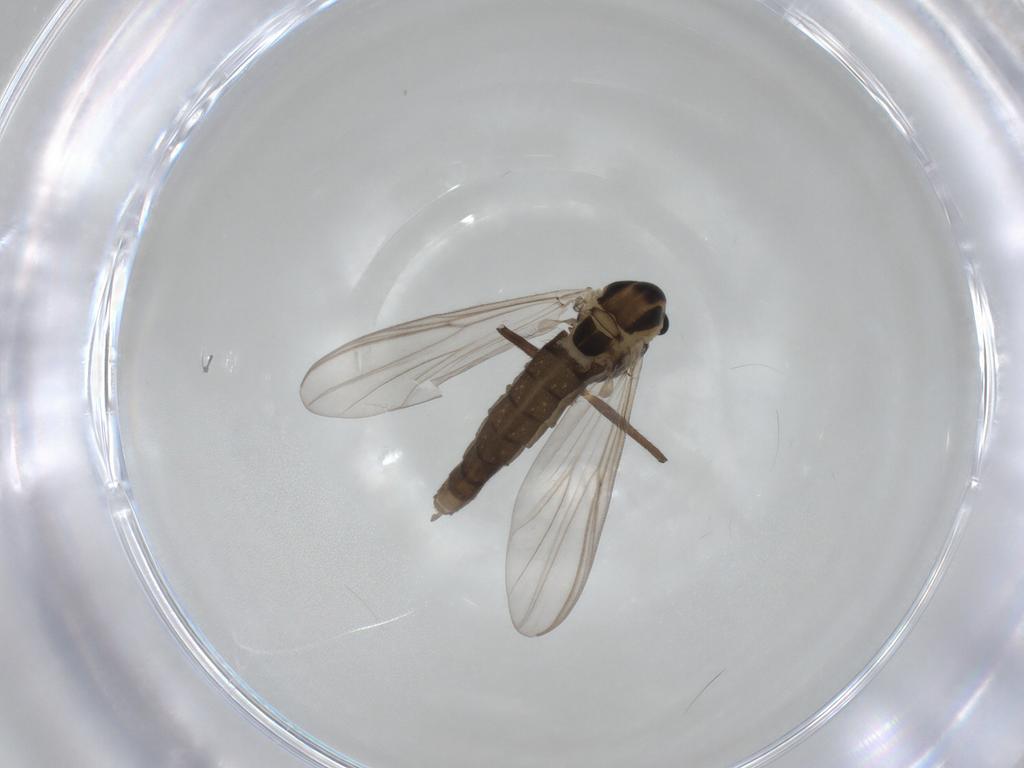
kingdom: Animalia
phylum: Arthropoda
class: Insecta
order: Diptera
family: Chironomidae
